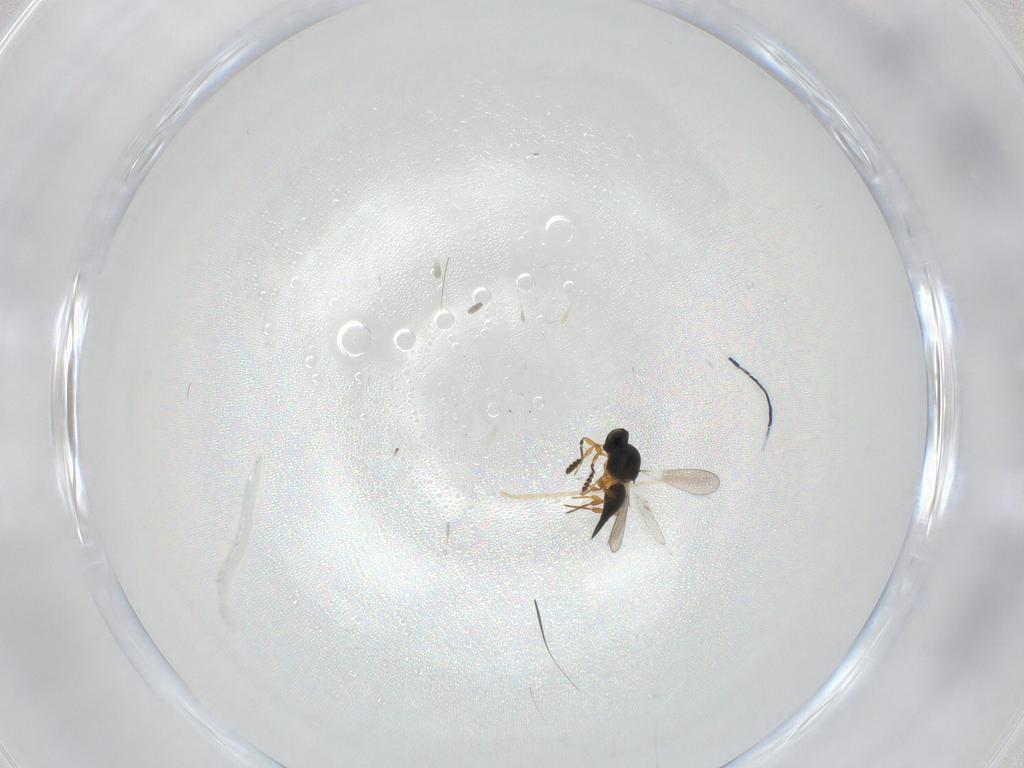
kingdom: Animalia
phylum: Arthropoda
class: Insecta
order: Hymenoptera
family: Platygastridae
